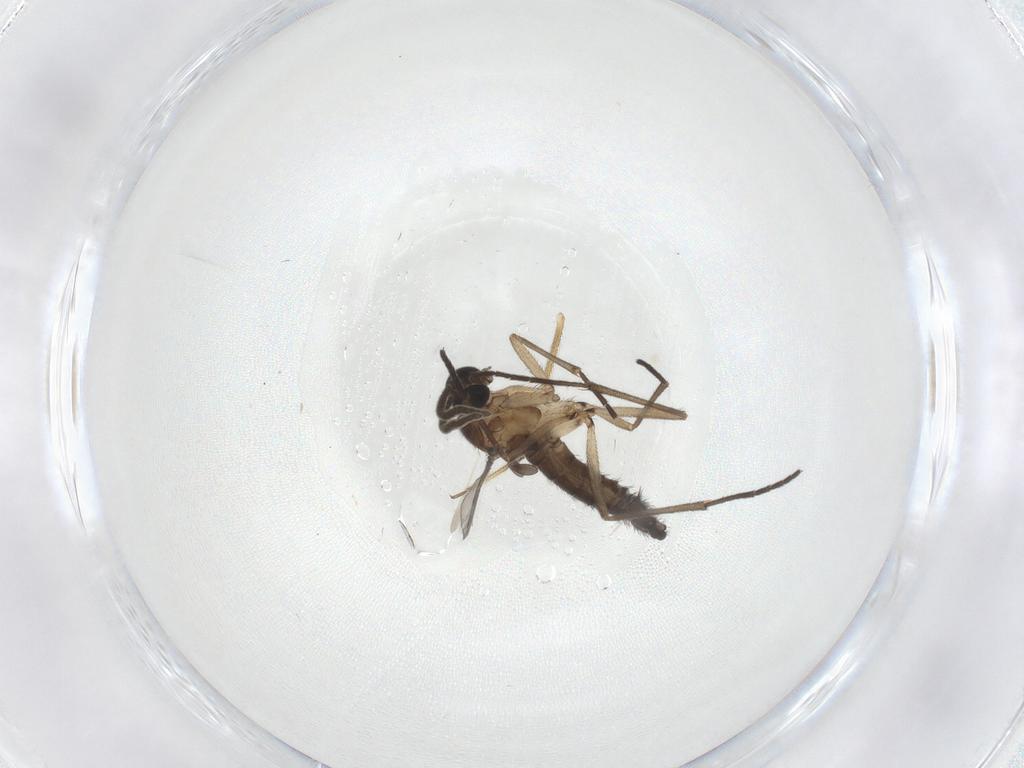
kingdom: Animalia
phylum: Arthropoda
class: Insecta
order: Diptera
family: Sciaridae
